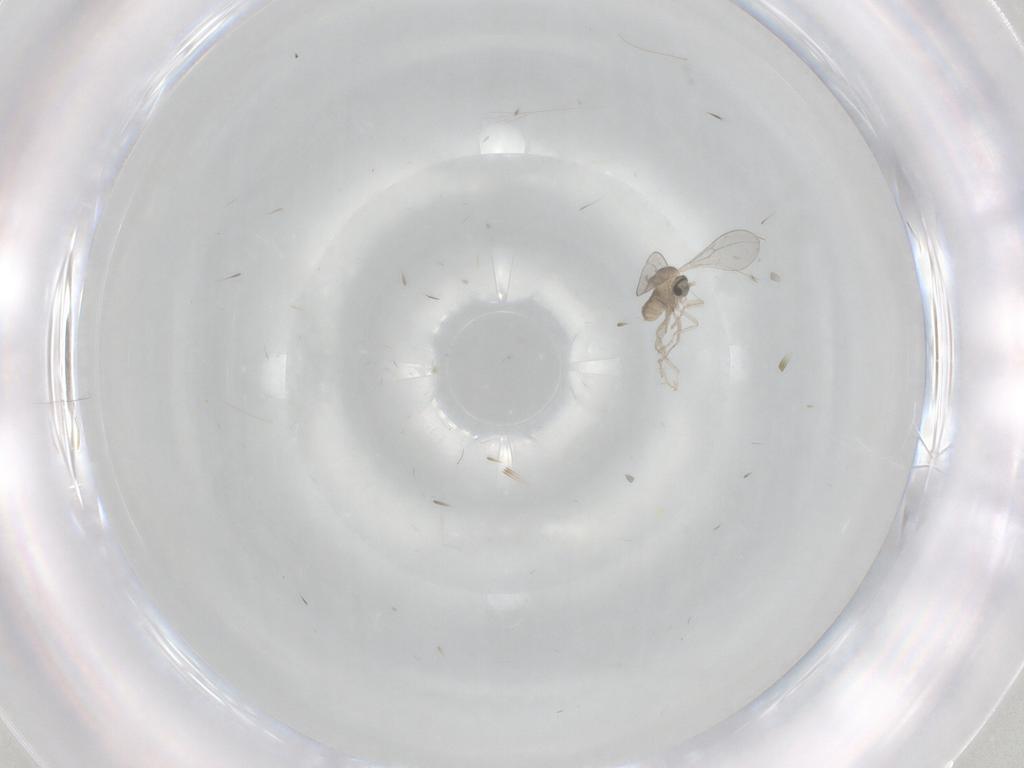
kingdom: Animalia
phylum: Arthropoda
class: Insecta
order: Diptera
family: Cecidomyiidae
